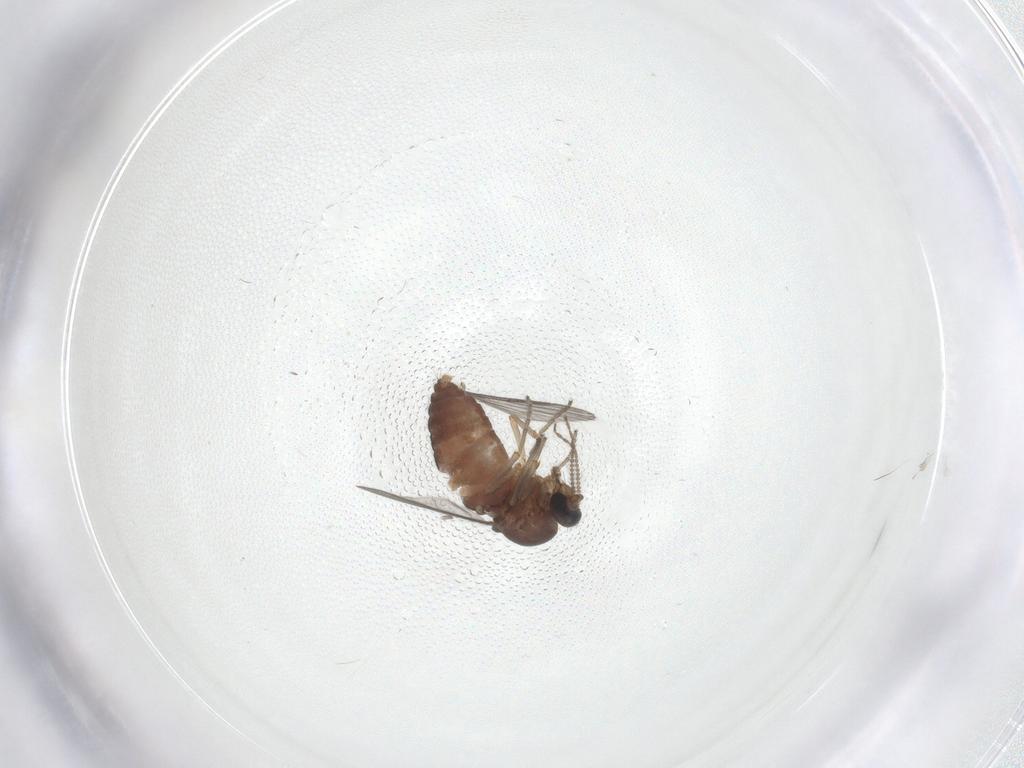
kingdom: Animalia
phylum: Arthropoda
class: Insecta
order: Diptera
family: Ceratopogonidae
